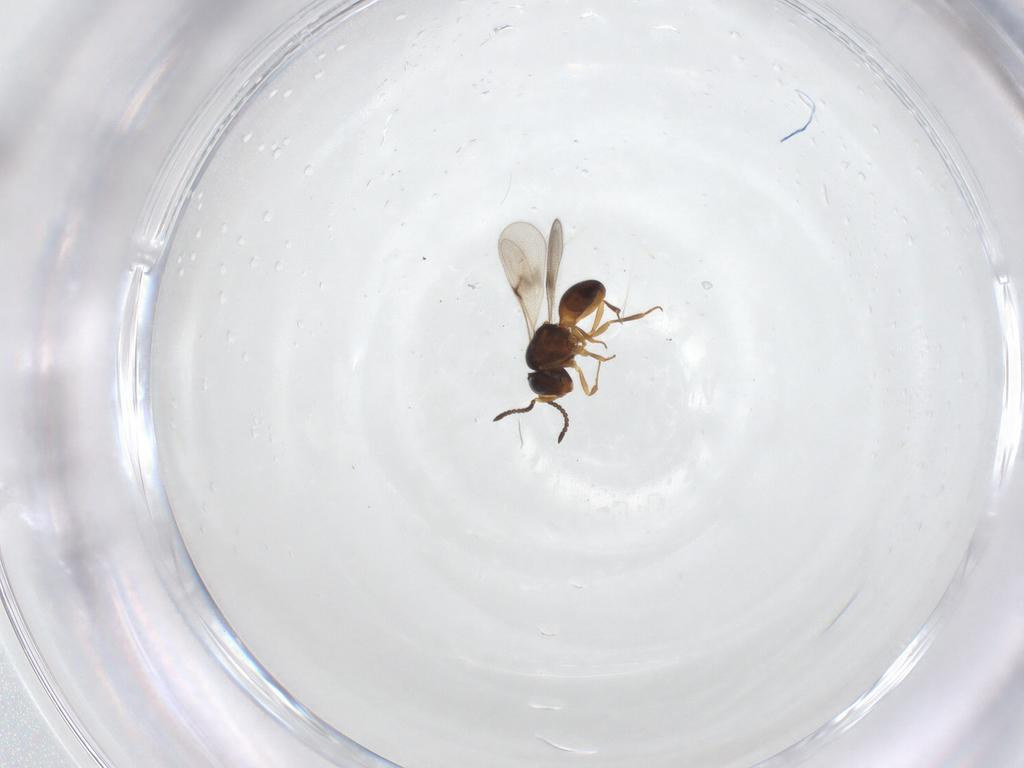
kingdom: Animalia
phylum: Arthropoda
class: Arachnida
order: Araneae
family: Pholcidae
